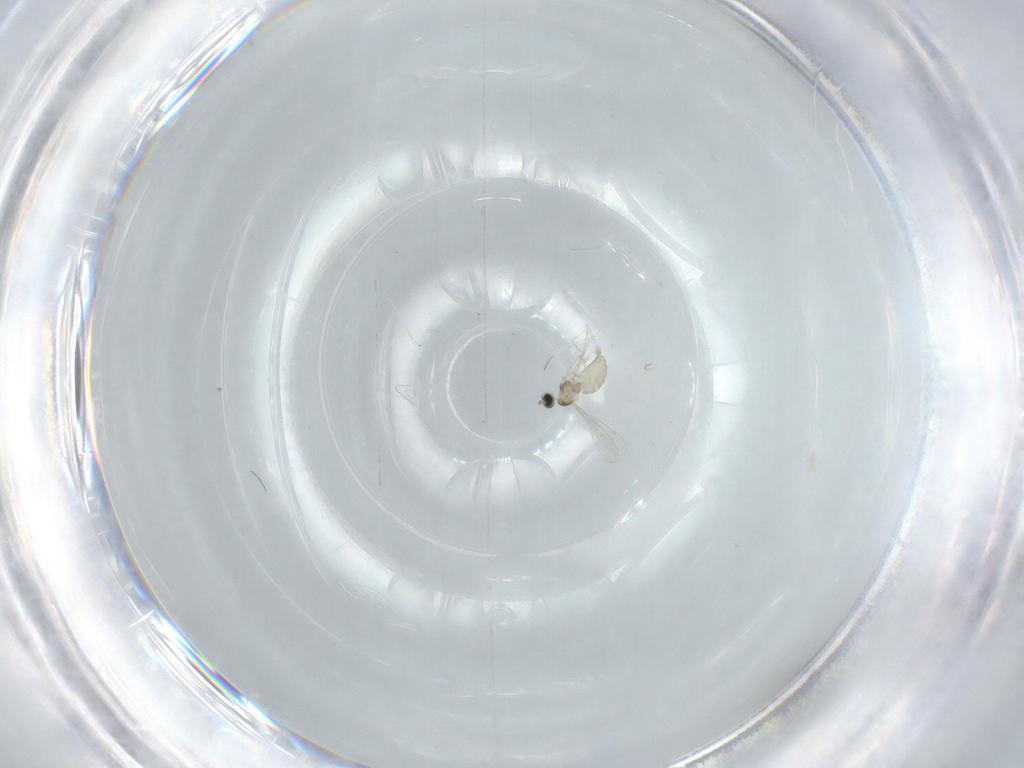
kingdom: Animalia
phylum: Arthropoda
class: Insecta
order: Diptera
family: Cecidomyiidae
